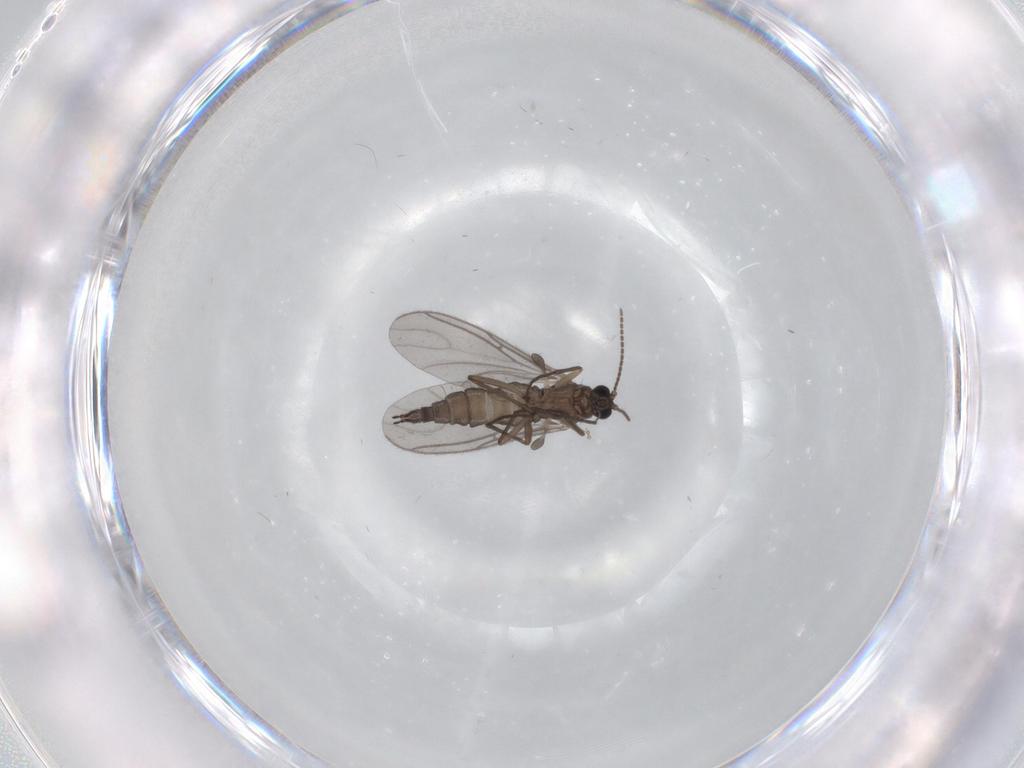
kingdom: Animalia
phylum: Arthropoda
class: Insecta
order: Diptera
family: Sciaridae
